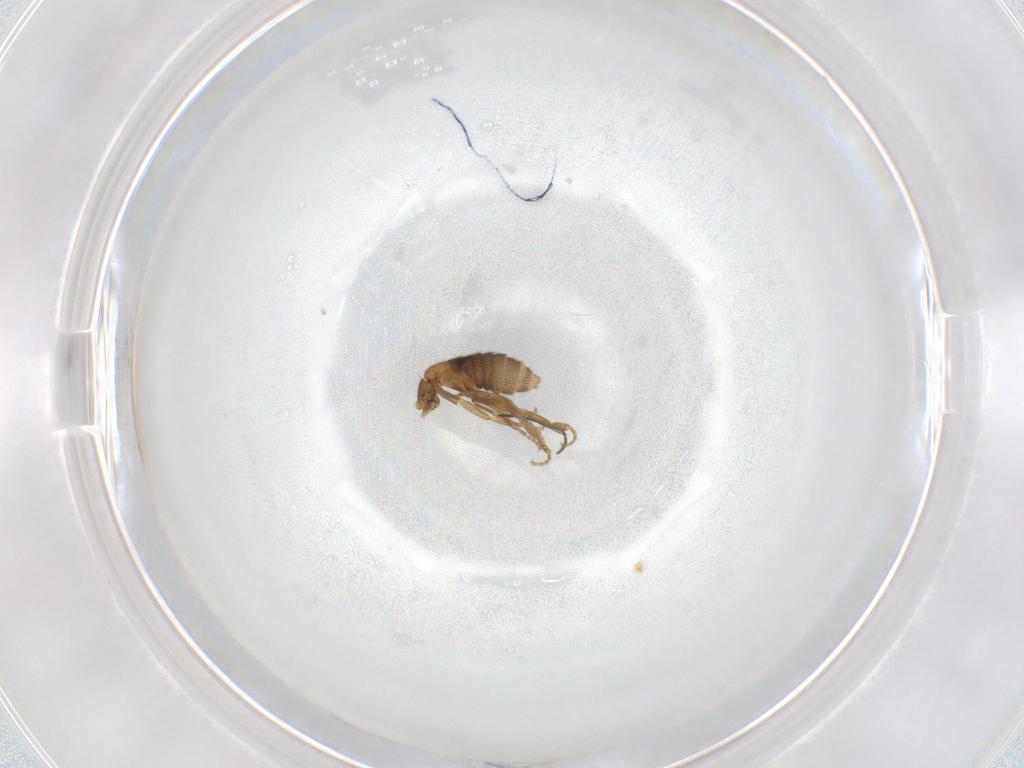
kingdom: Animalia
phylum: Arthropoda
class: Insecta
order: Diptera
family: Sciaridae
